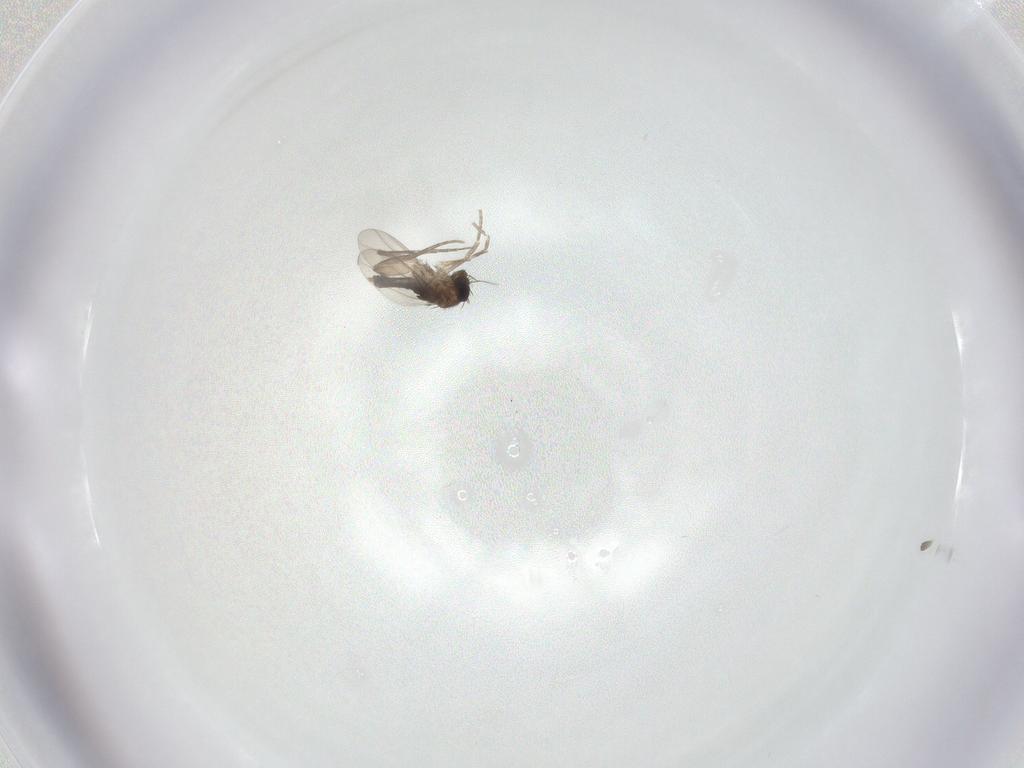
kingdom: Animalia
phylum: Arthropoda
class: Insecta
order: Diptera
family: Phoridae
